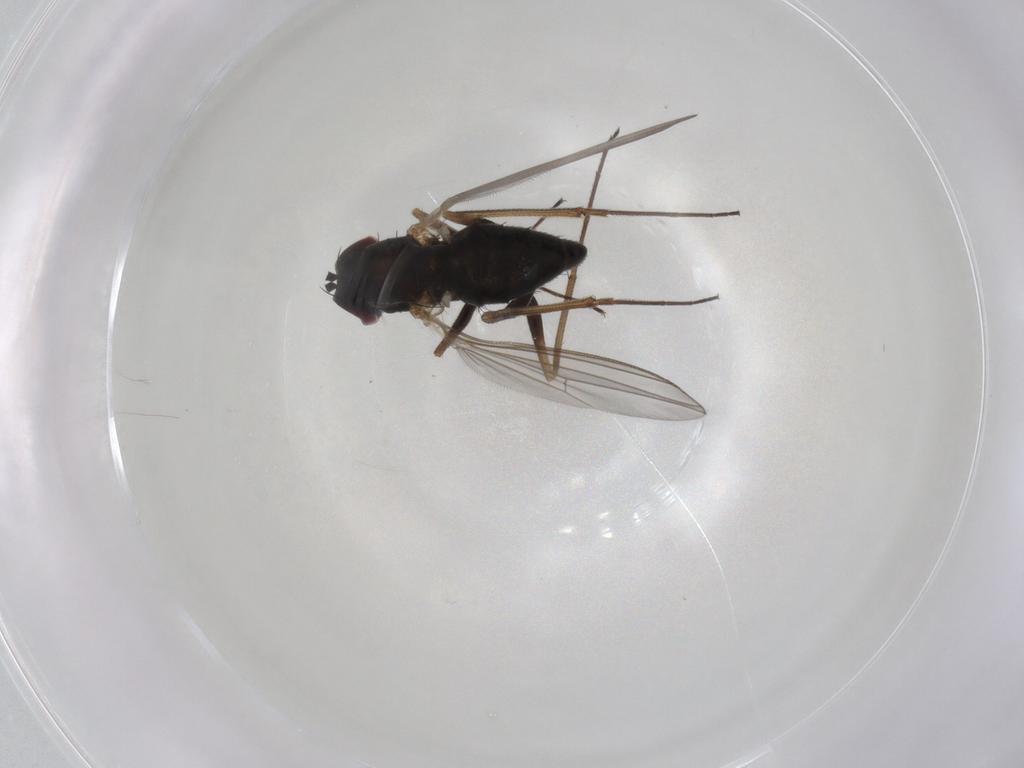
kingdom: Animalia
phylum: Arthropoda
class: Insecta
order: Diptera
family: Dolichopodidae
